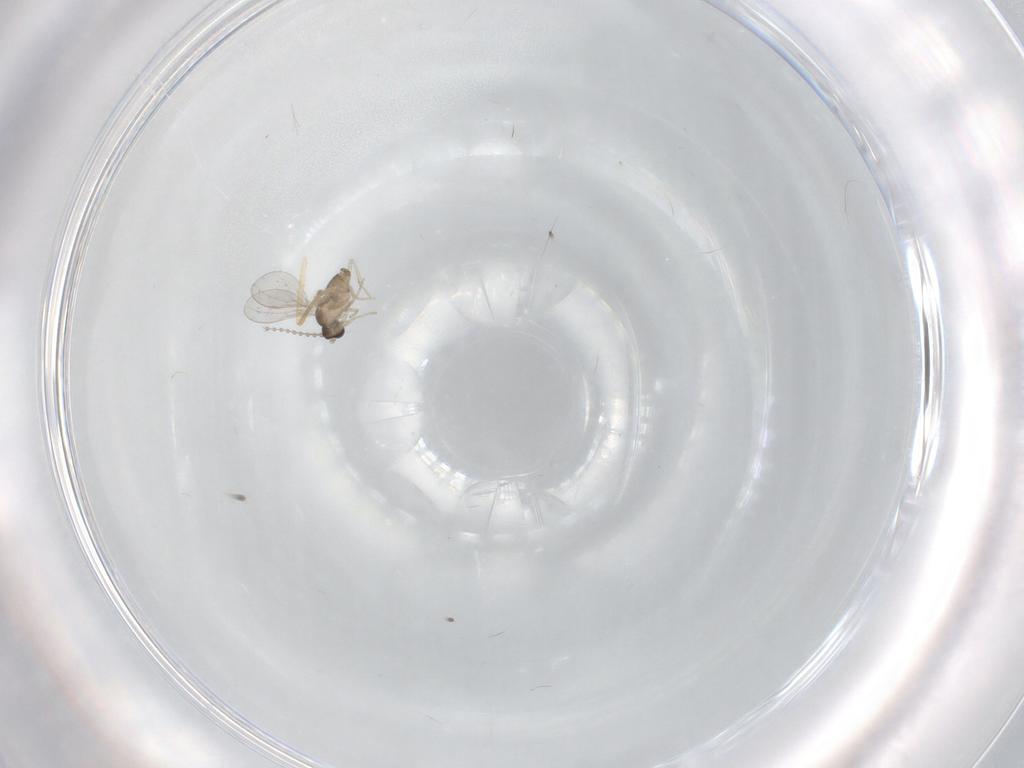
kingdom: Animalia
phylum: Arthropoda
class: Insecta
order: Diptera
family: Cecidomyiidae
